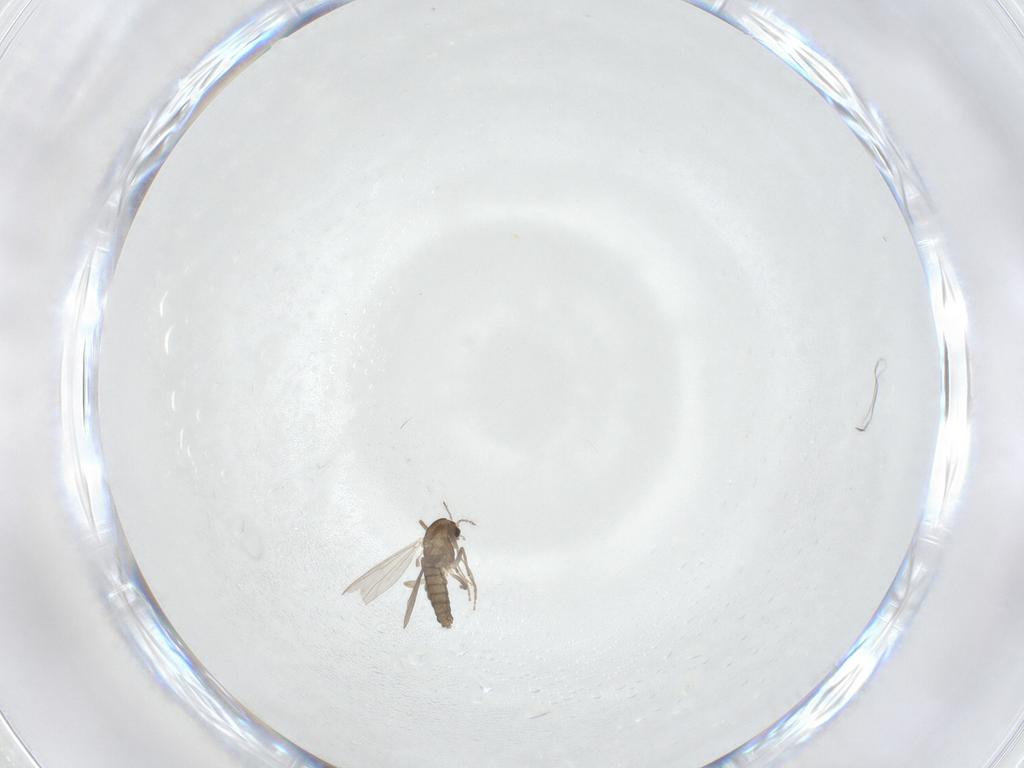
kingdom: Animalia
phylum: Arthropoda
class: Insecta
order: Diptera
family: Chironomidae
